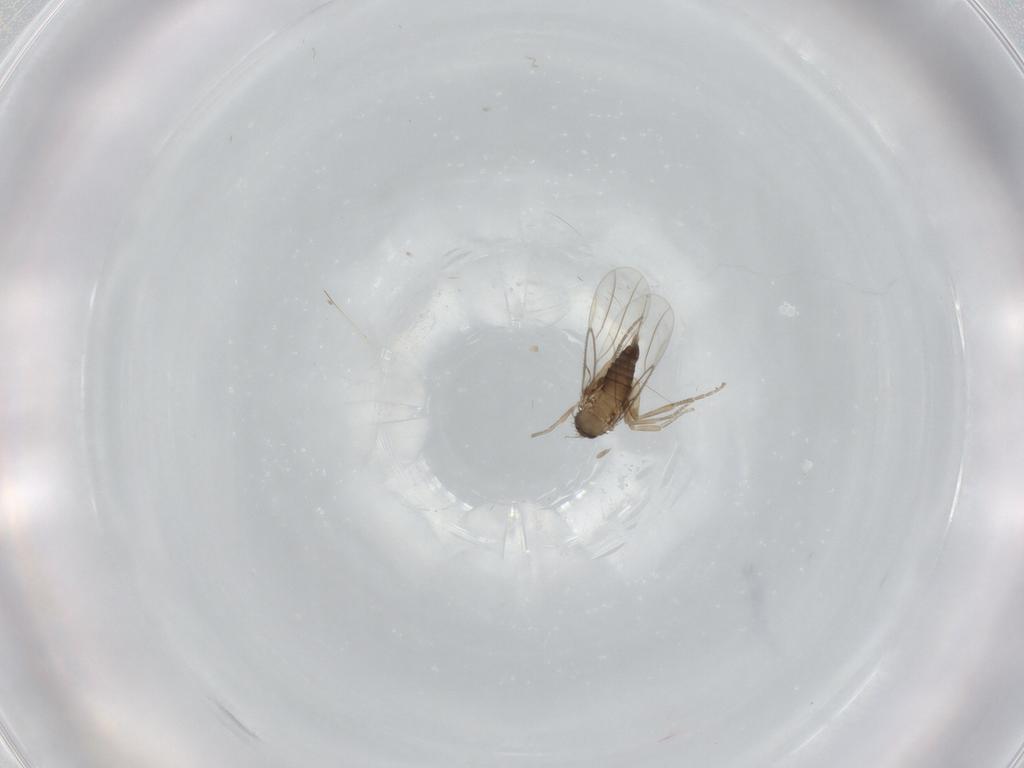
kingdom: Animalia
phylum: Arthropoda
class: Insecta
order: Diptera
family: Phoridae
